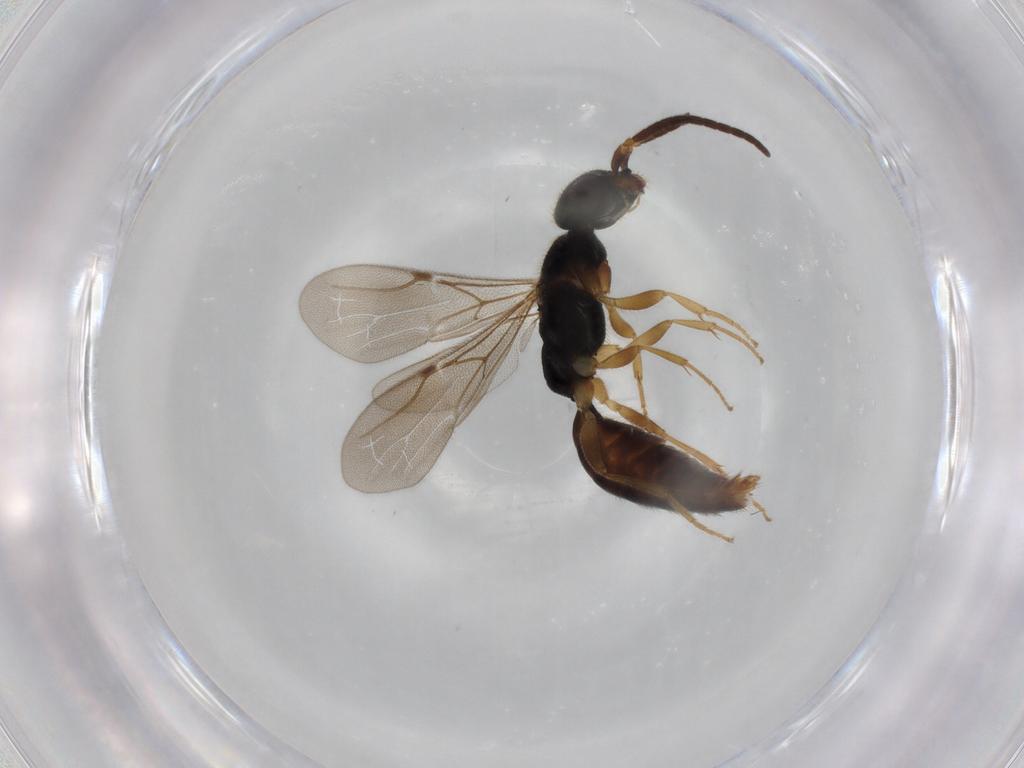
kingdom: Animalia
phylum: Arthropoda
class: Insecta
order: Hymenoptera
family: Bethylidae
